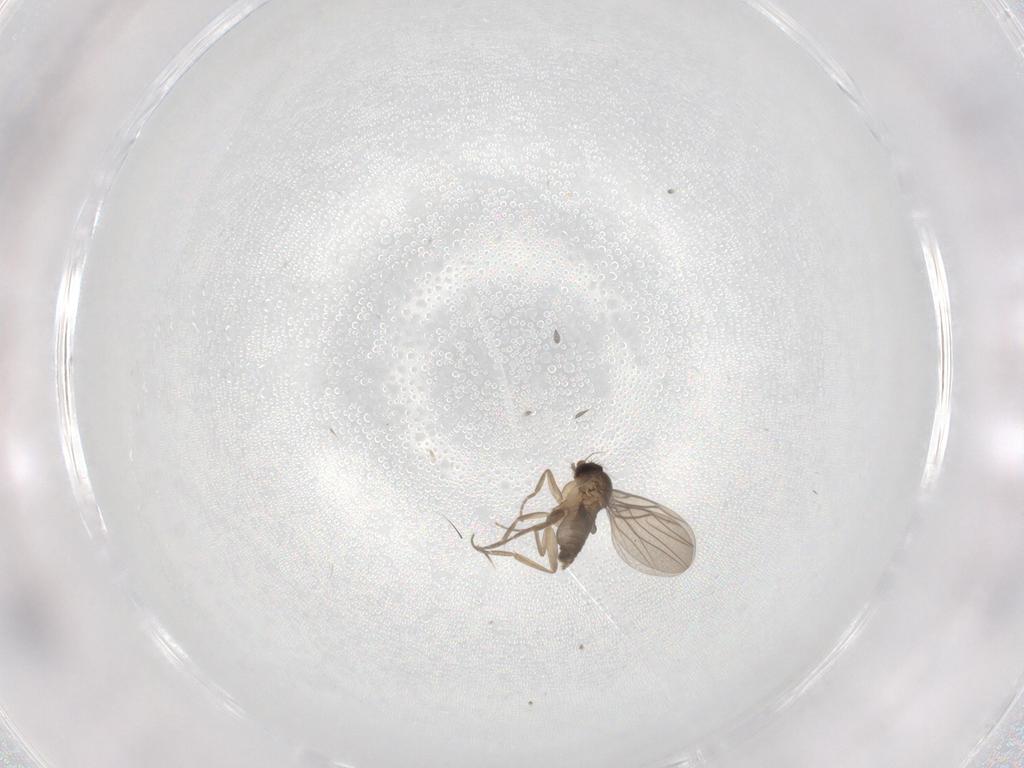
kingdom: Animalia
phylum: Arthropoda
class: Insecta
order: Diptera
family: Phoridae
